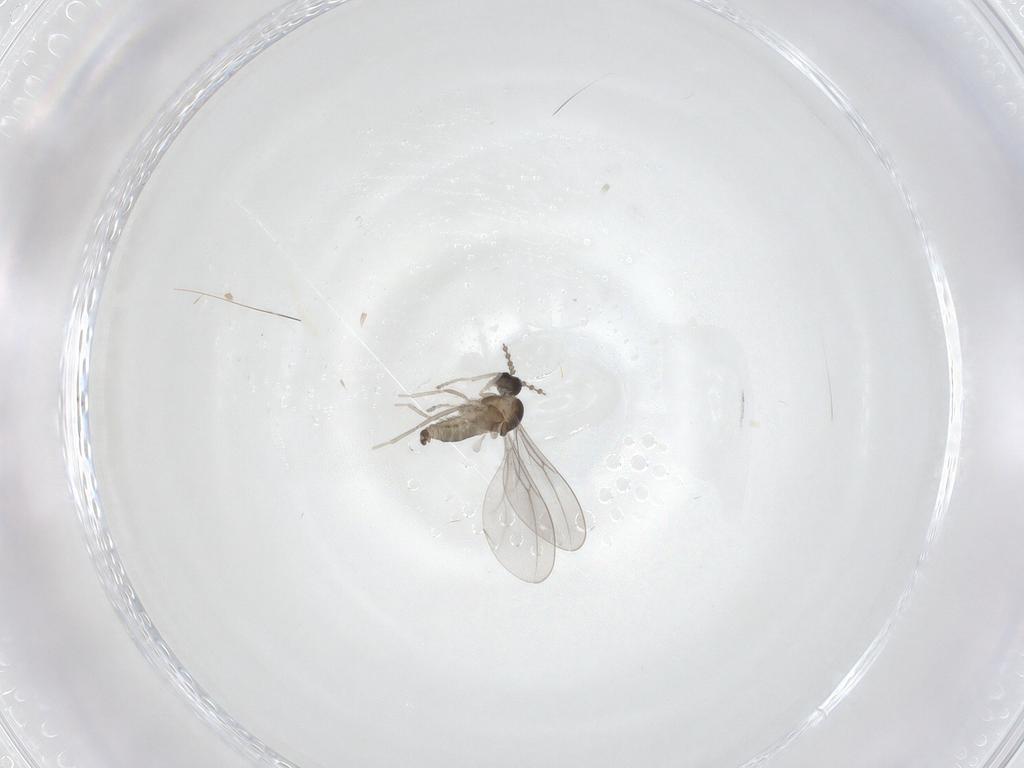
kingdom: Animalia
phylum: Arthropoda
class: Insecta
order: Diptera
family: Cecidomyiidae
